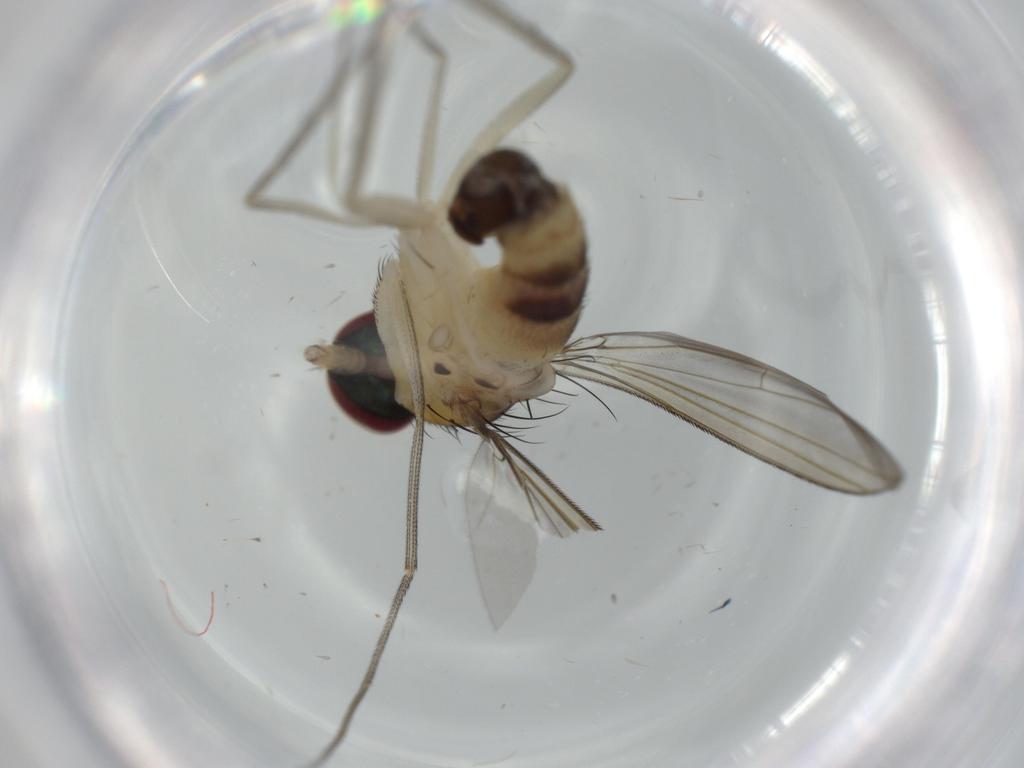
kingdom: Animalia
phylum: Arthropoda
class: Insecta
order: Diptera
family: Dolichopodidae
